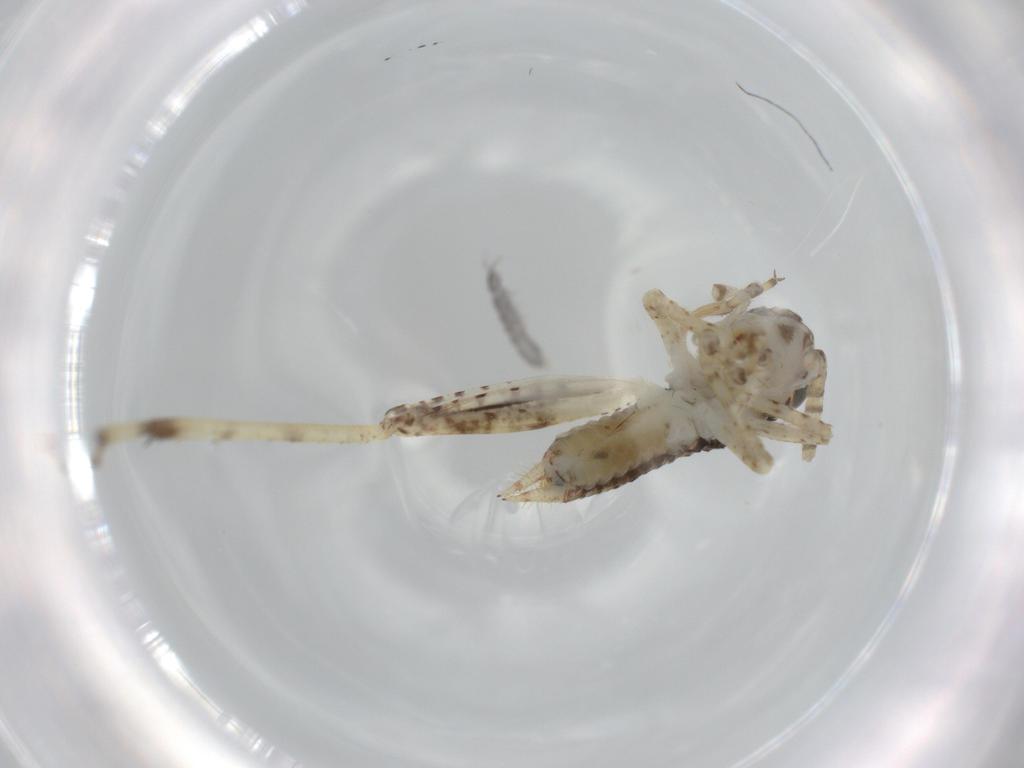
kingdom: Animalia
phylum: Arthropoda
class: Insecta
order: Orthoptera
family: Gryllidae
